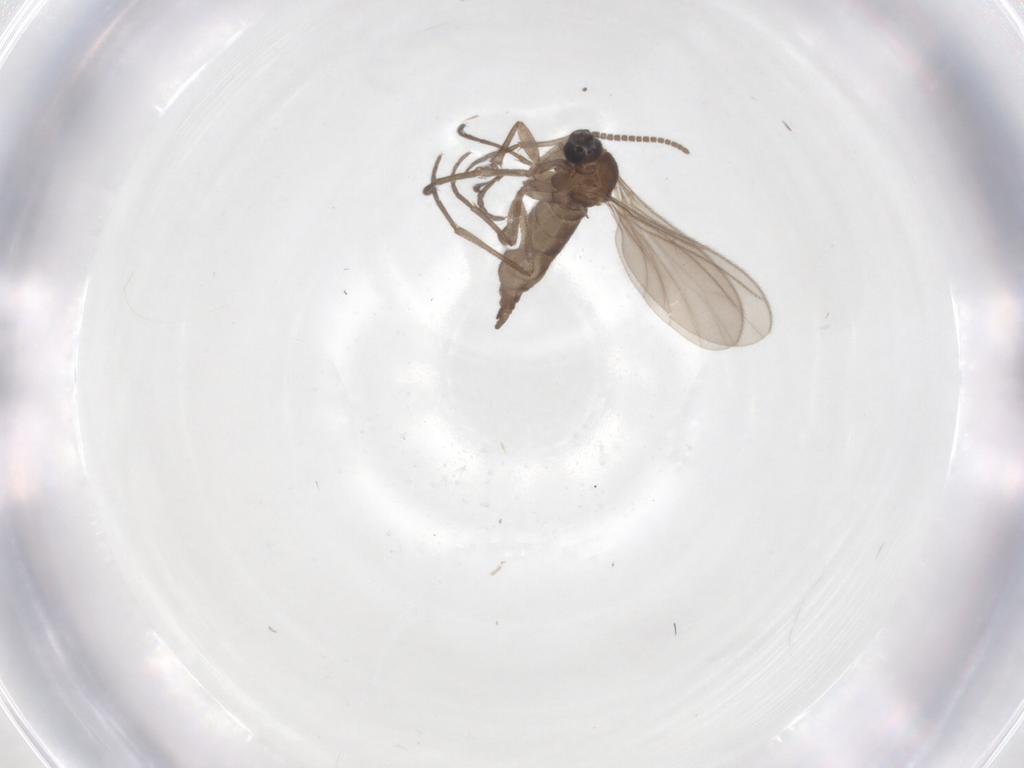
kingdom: Animalia
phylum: Arthropoda
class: Insecta
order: Diptera
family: Sciaridae
